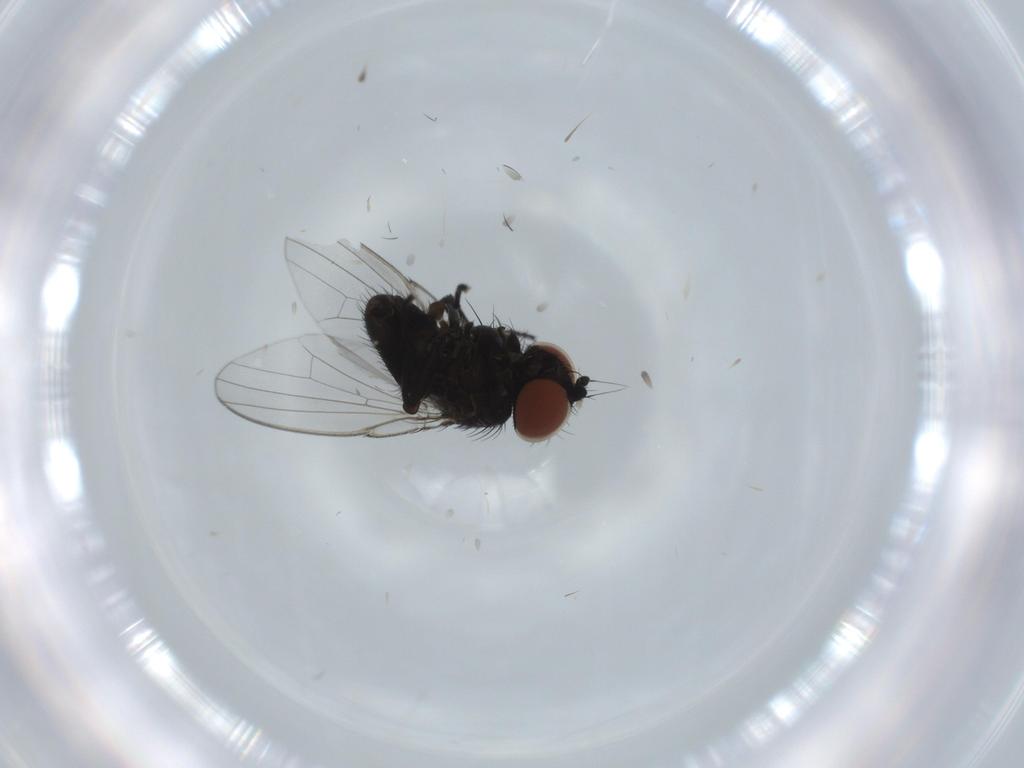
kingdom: Animalia
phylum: Arthropoda
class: Insecta
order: Diptera
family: Milichiidae
